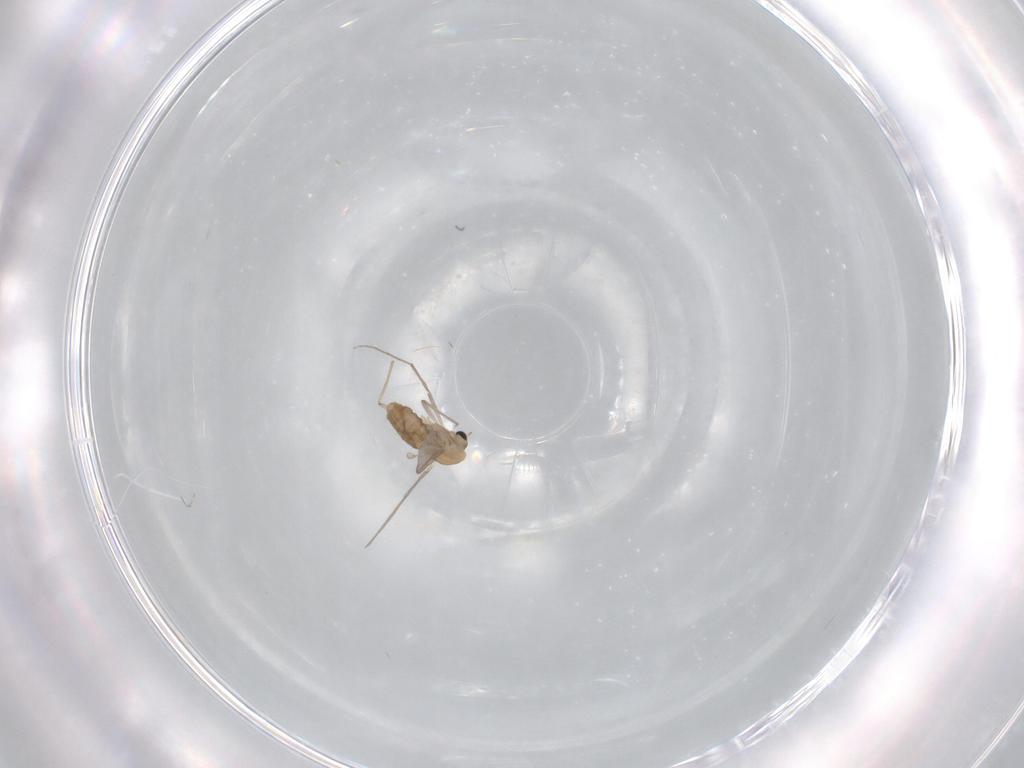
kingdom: Animalia
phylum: Arthropoda
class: Insecta
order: Diptera
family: Chironomidae
